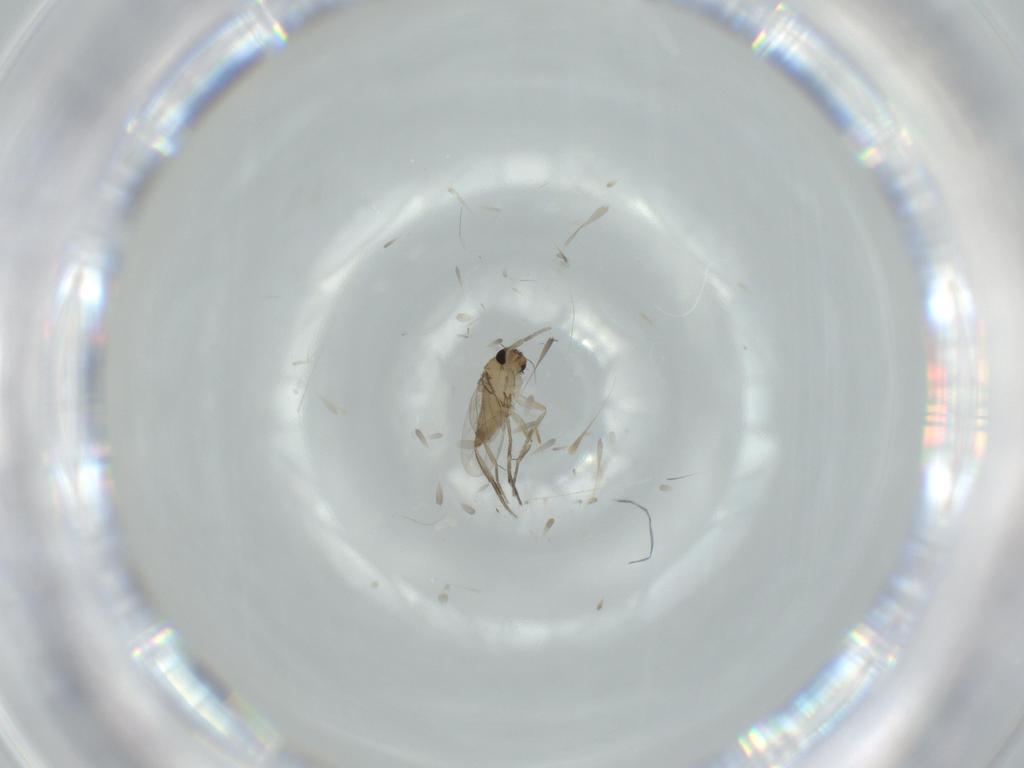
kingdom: Animalia
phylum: Arthropoda
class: Insecta
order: Diptera
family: Phoridae
